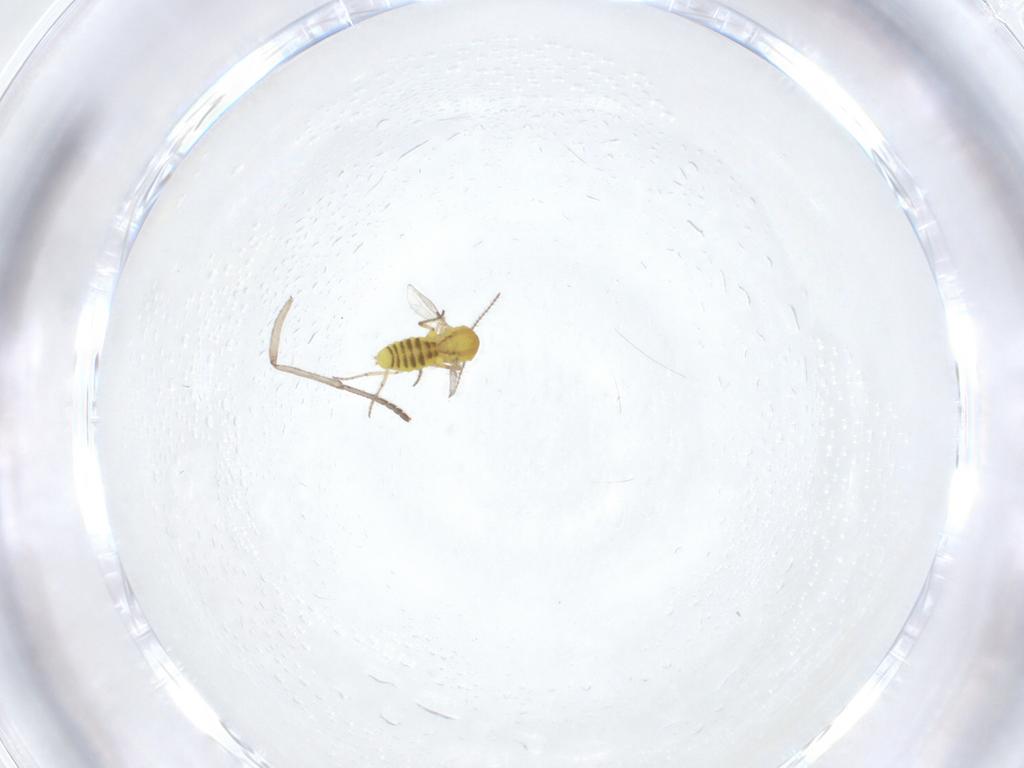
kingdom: Animalia
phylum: Arthropoda
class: Insecta
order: Diptera
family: Ceratopogonidae
